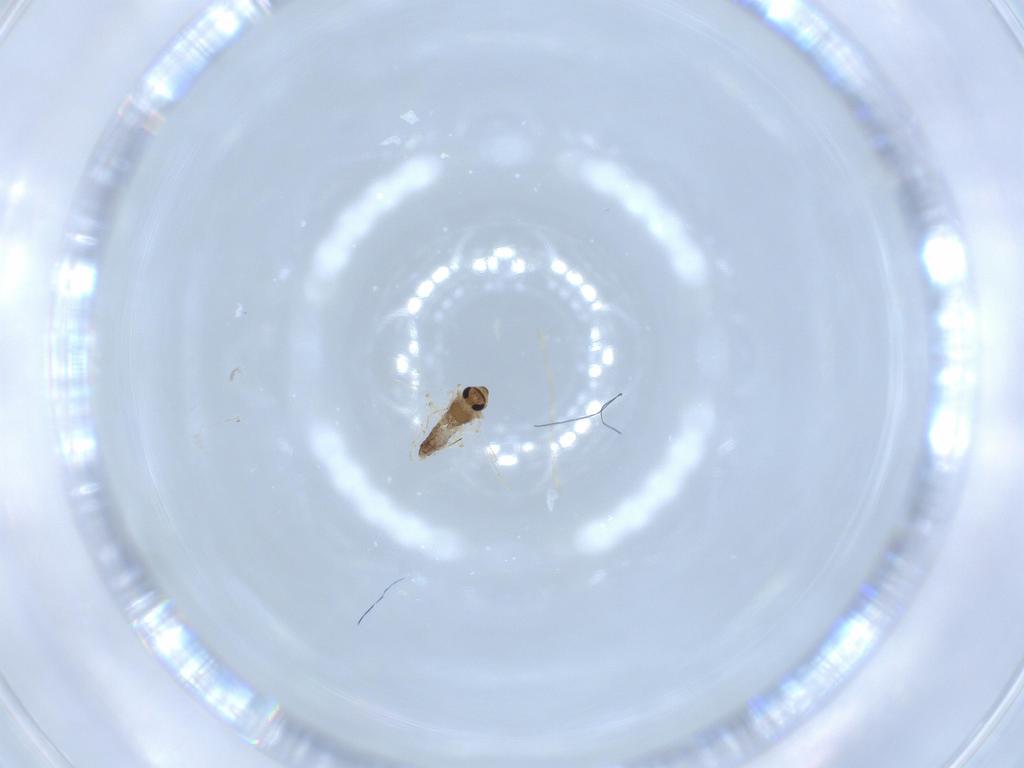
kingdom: Animalia
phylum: Arthropoda
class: Insecta
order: Diptera
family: Chironomidae
